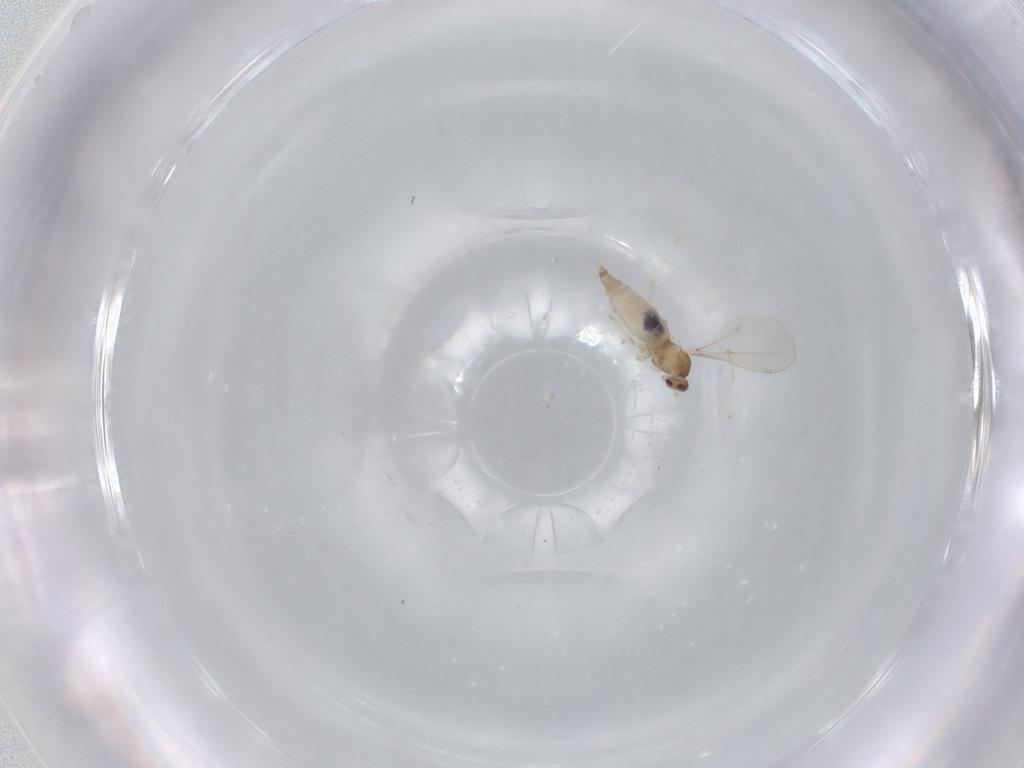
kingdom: Animalia
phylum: Arthropoda
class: Insecta
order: Diptera
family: Cecidomyiidae
